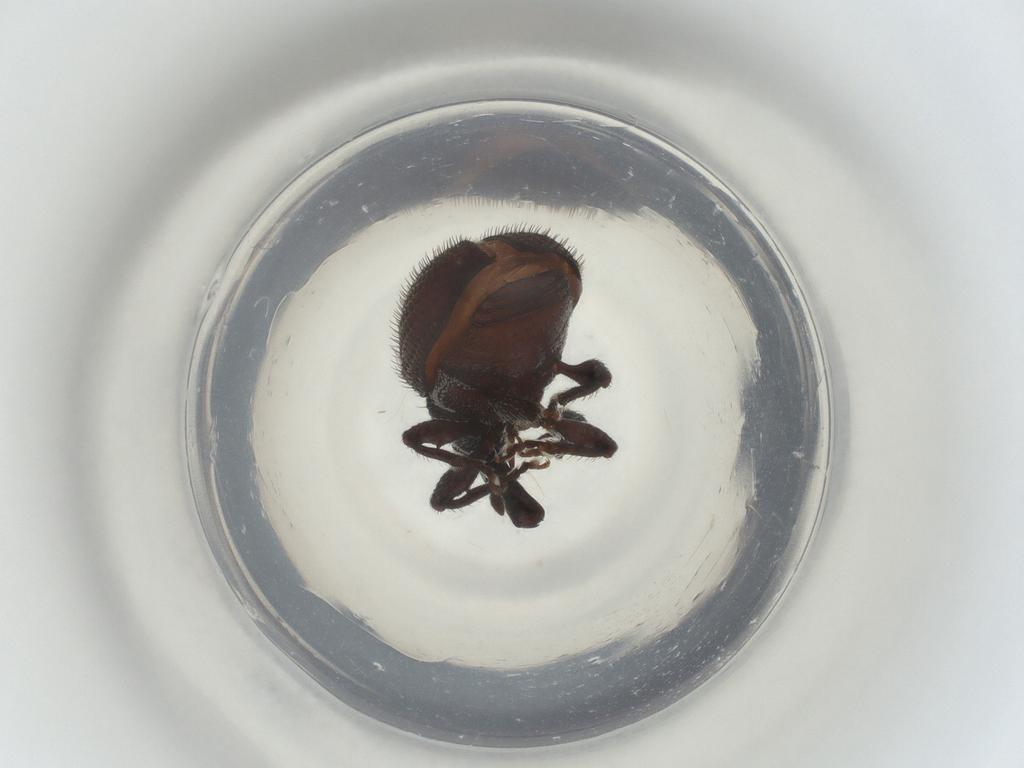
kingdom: Animalia
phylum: Arthropoda
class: Insecta
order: Coleoptera
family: Curculionidae
